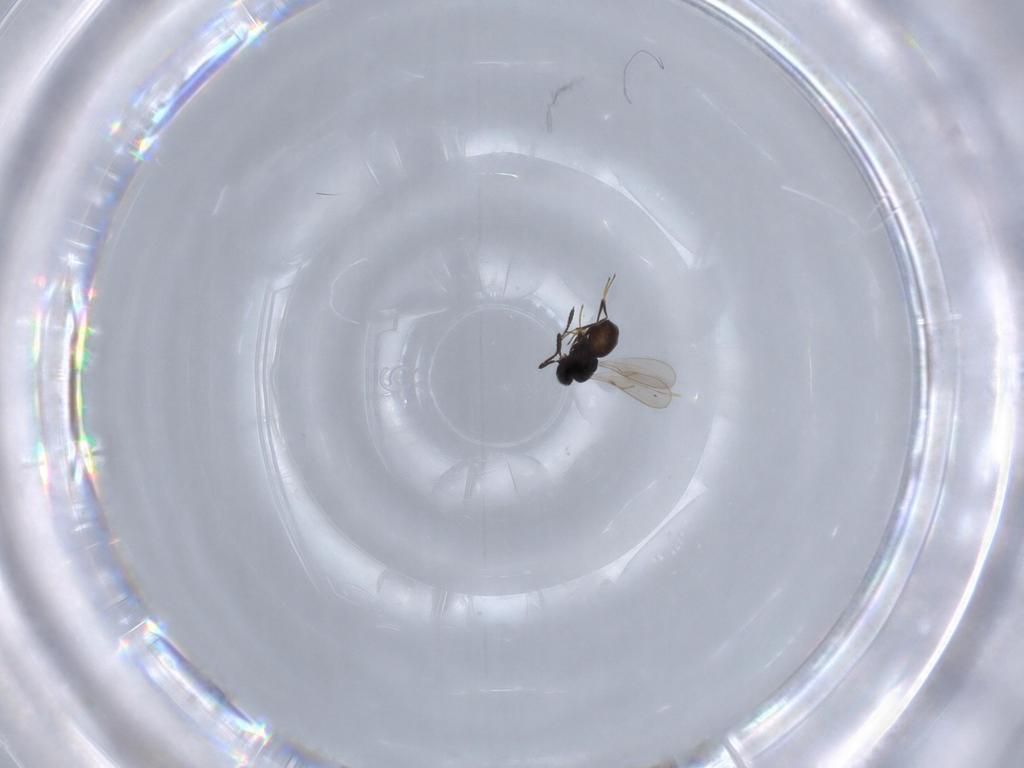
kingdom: Animalia
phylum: Arthropoda
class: Insecta
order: Hymenoptera
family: Scelionidae
